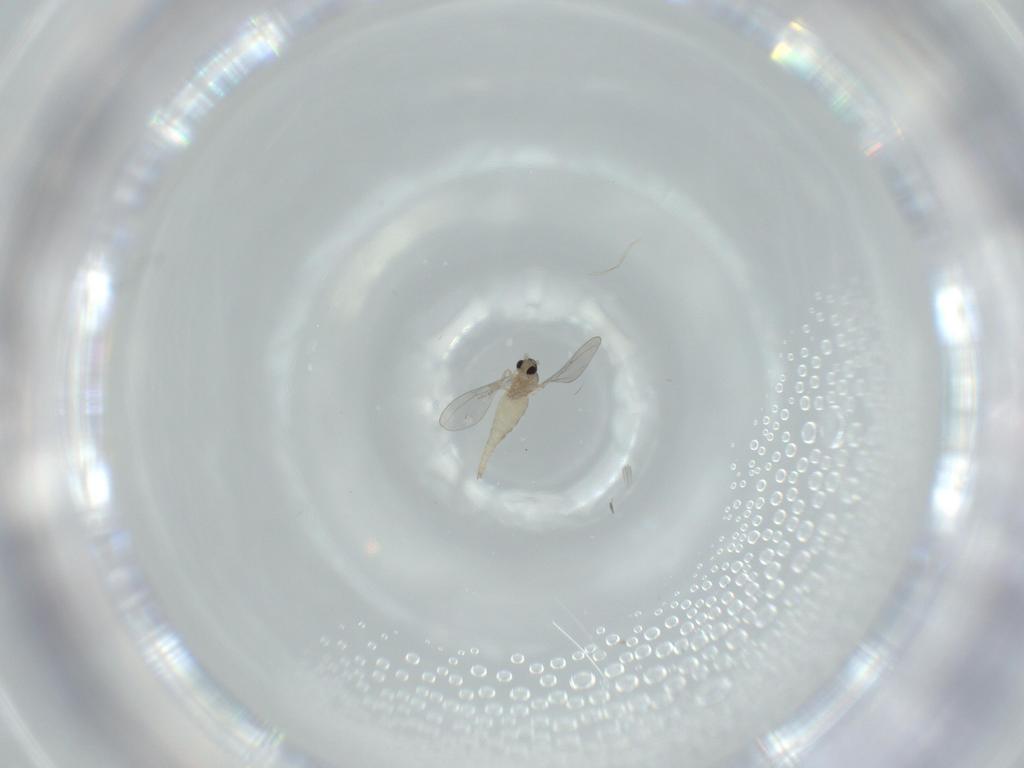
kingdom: Animalia
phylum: Arthropoda
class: Insecta
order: Diptera
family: Cecidomyiidae
